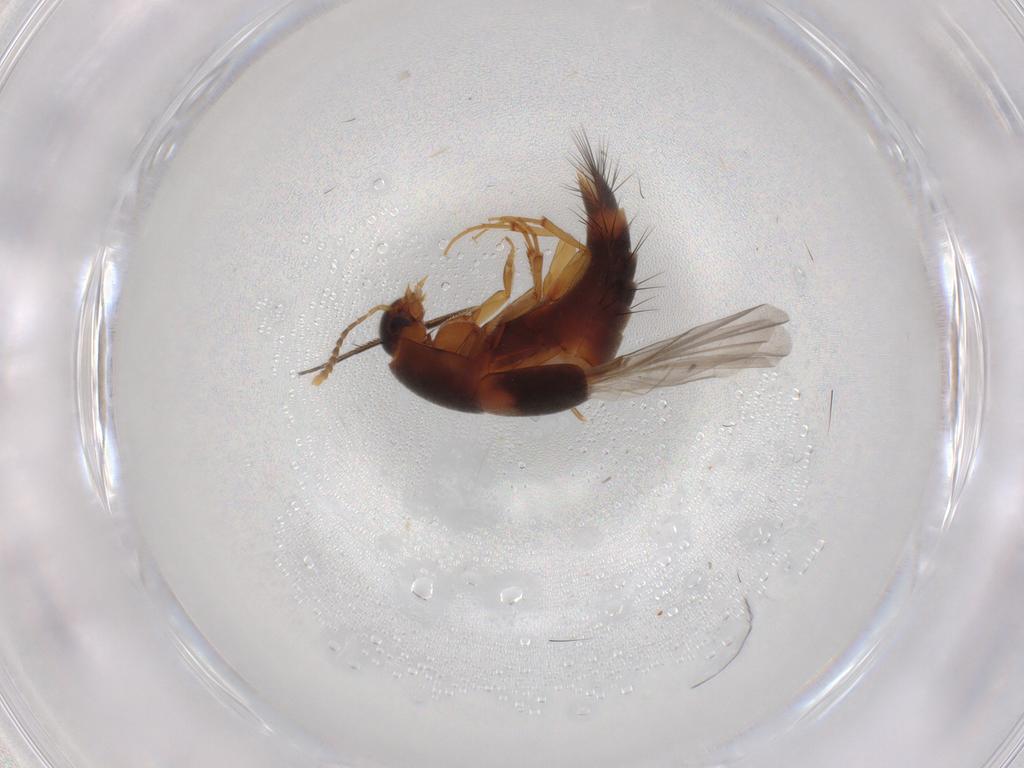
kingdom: Animalia
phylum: Arthropoda
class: Insecta
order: Coleoptera
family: Staphylinidae
